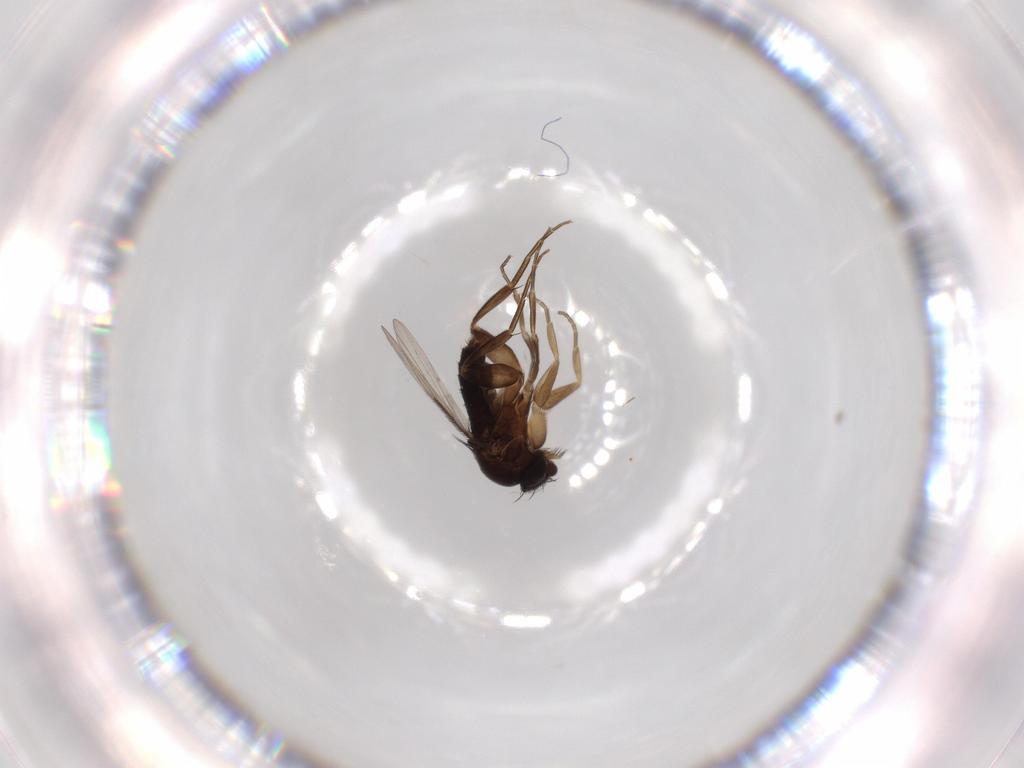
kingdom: Animalia
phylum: Arthropoda
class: Insecta
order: Diptera
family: Phoridae
